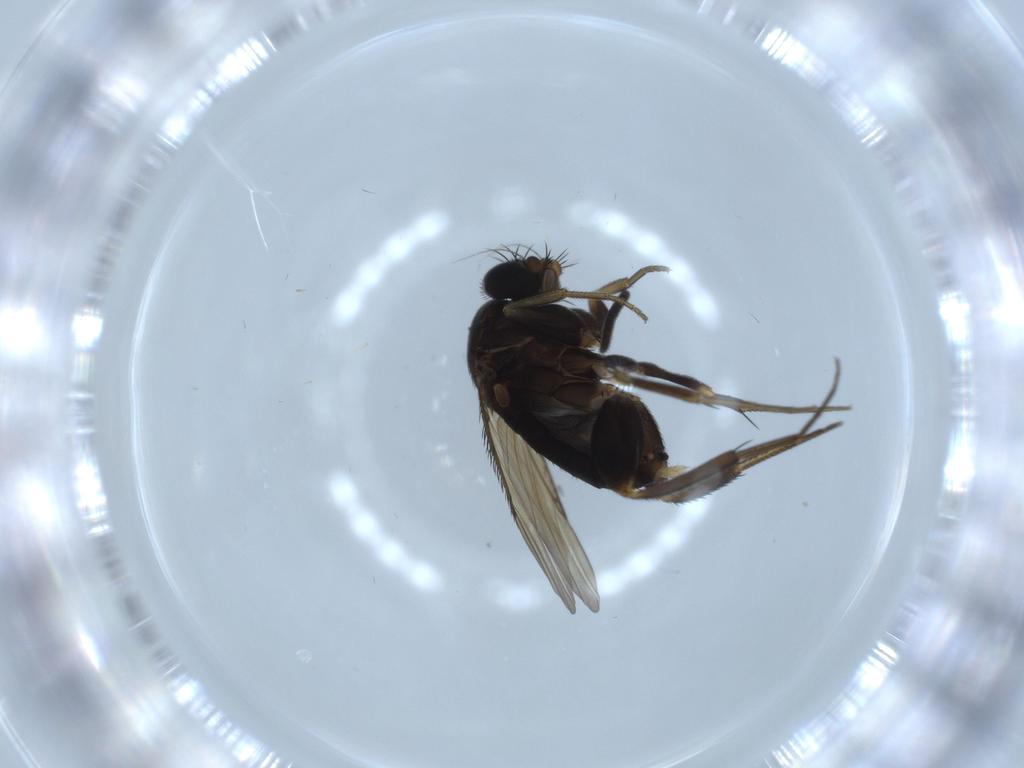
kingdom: Animalia
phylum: Arthropoda
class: Insecta
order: Diptera
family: Phoridae
